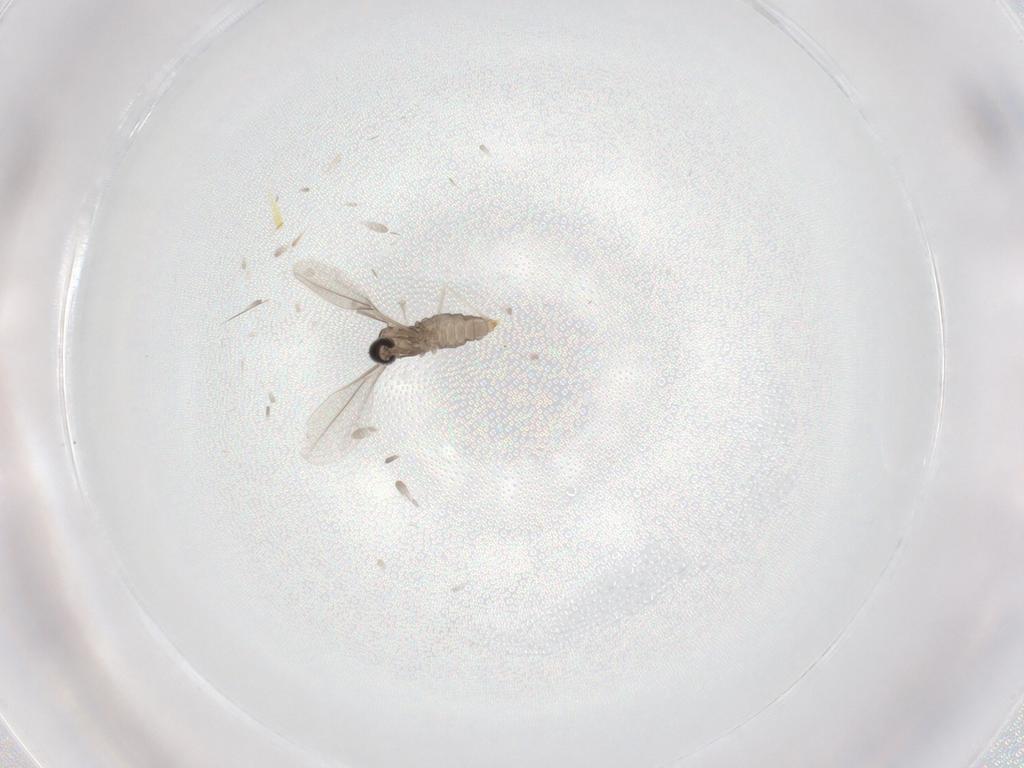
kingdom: Animalia
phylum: Arthropoda
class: Insecta
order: Diptera
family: Cecidomyiidae
